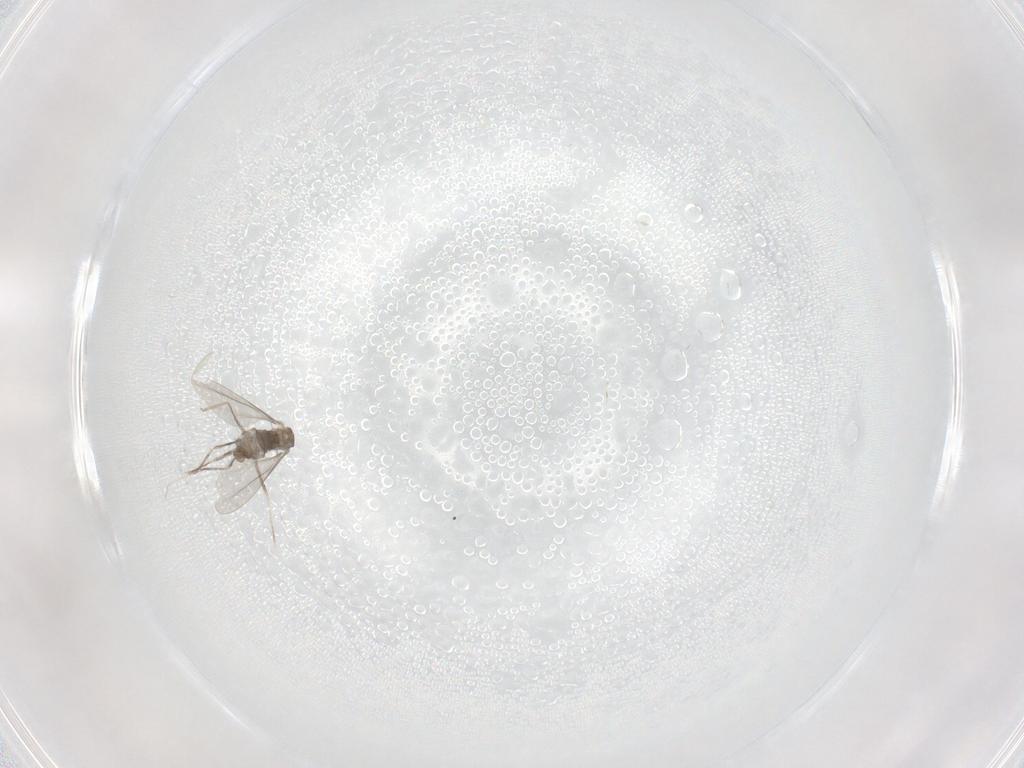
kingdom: Animalia
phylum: Arthropoda
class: Insecta
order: Diptera
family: Cecidomyiidae
